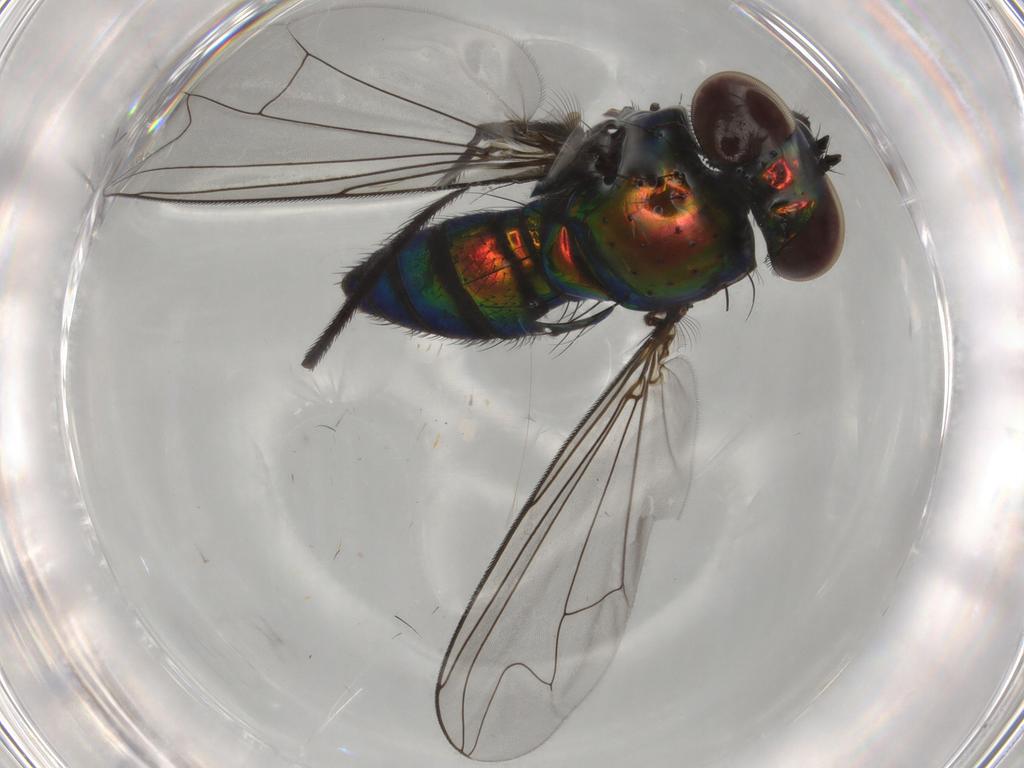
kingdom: Animalia
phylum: Arthropoda
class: Insecta
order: Diptera
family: Dolichopodidae
